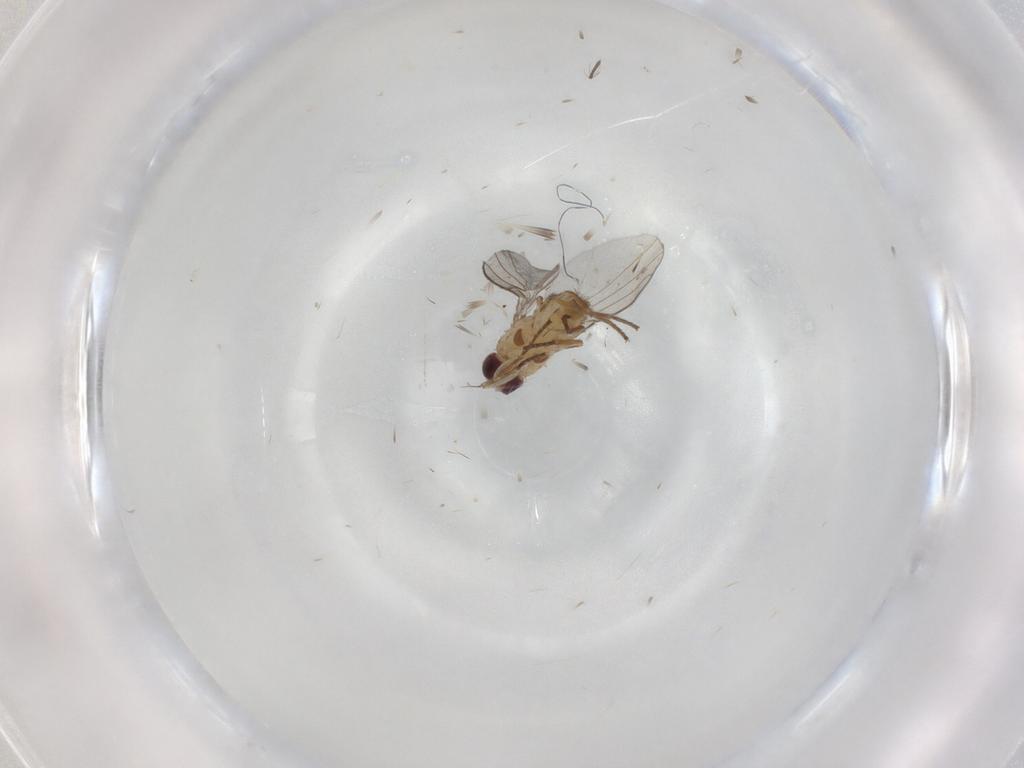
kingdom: Animalia
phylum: Arthropoda
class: Insecta
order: Diptera
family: Agromyzidae
